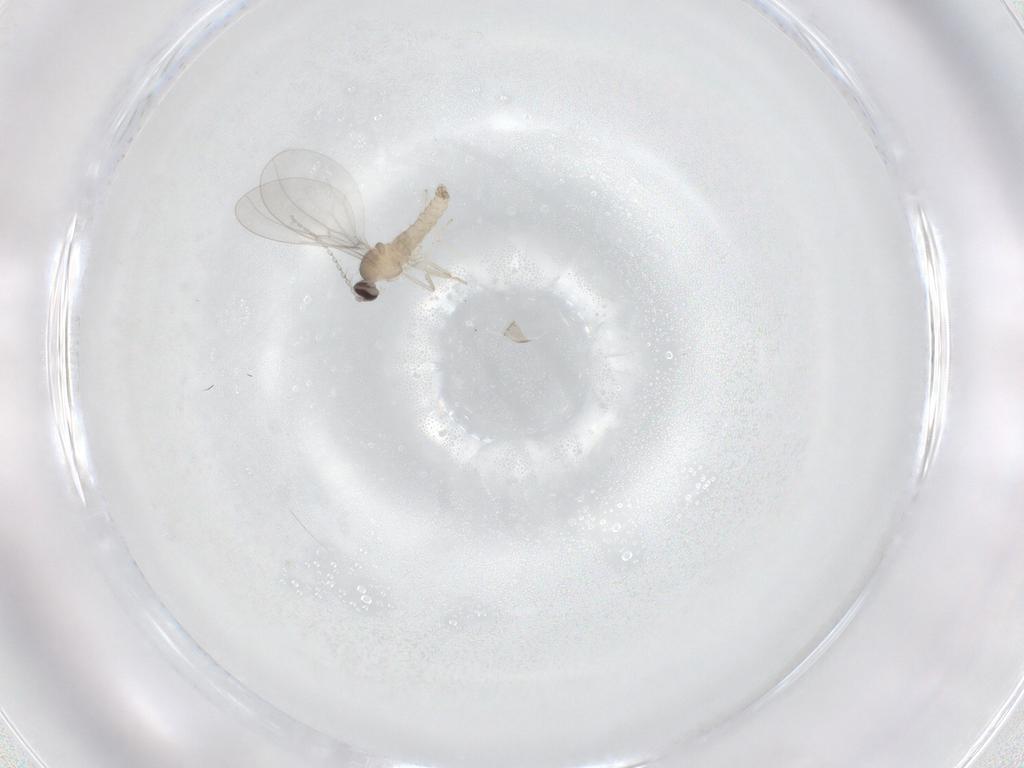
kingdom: Animalia
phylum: Arthropoda
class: Insecta
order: Diptera
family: Cecidomyiidae
